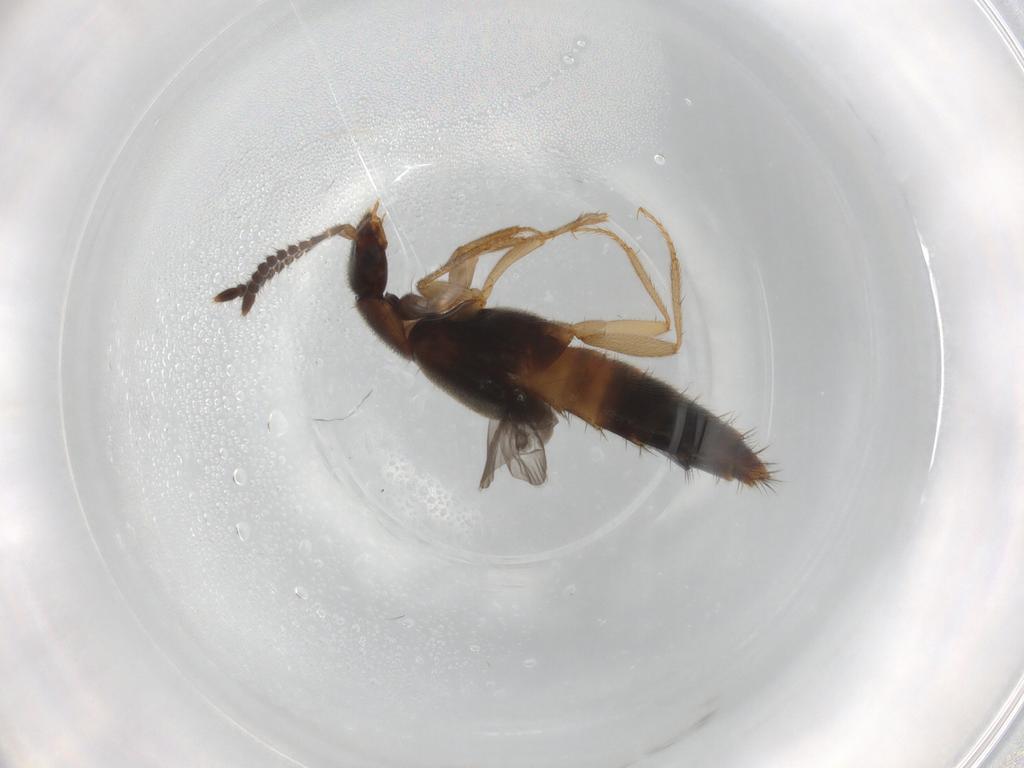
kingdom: Animalia
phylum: Arthropoda
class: Insecta
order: Coleoptera
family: Staphylinidae
